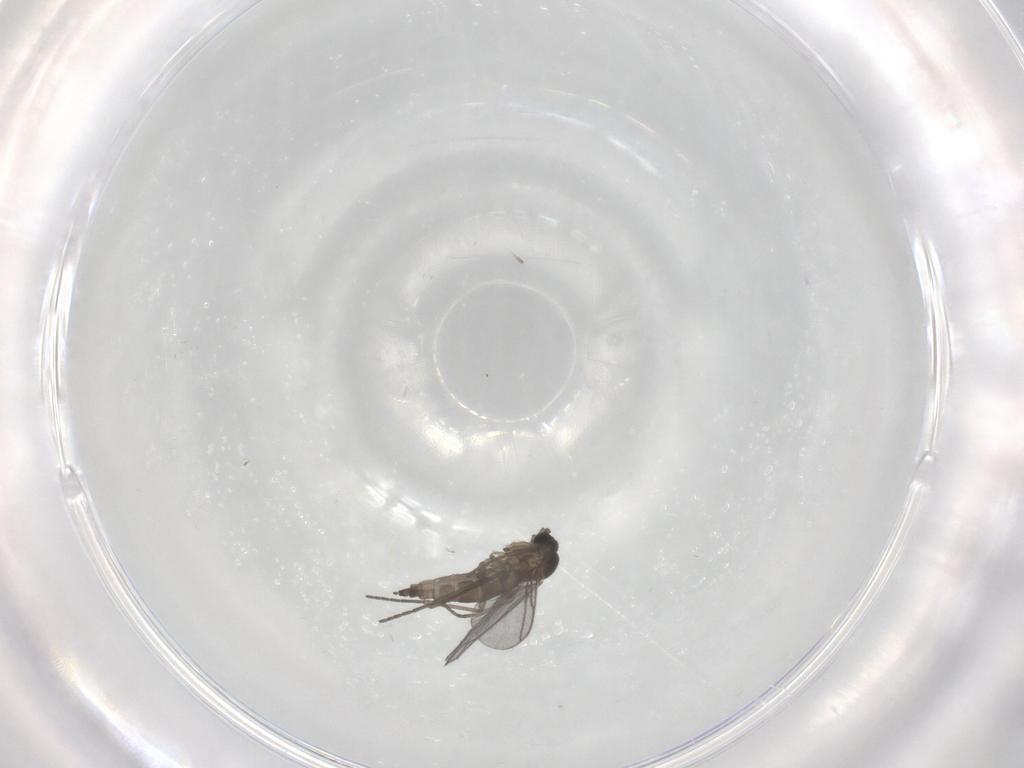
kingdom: Animalia
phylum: Arthropoda
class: Insecta
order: Diptera
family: Phoridae
